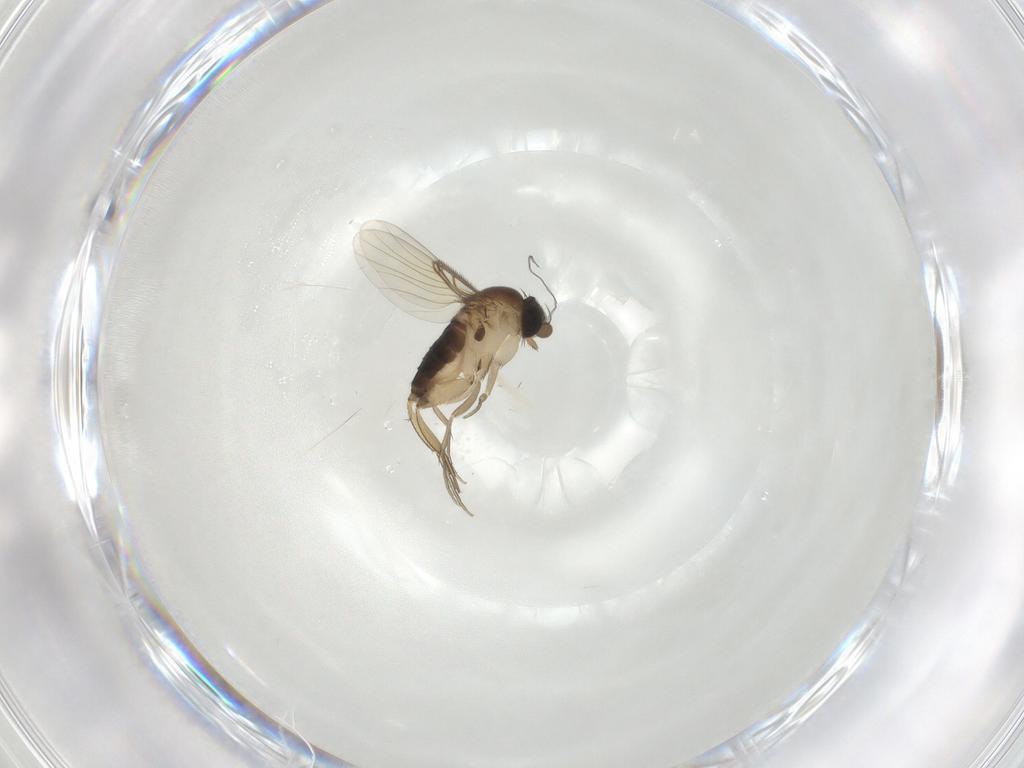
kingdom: Animalia
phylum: Arthropoda
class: Insecta
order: Diptera
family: Phoridae
